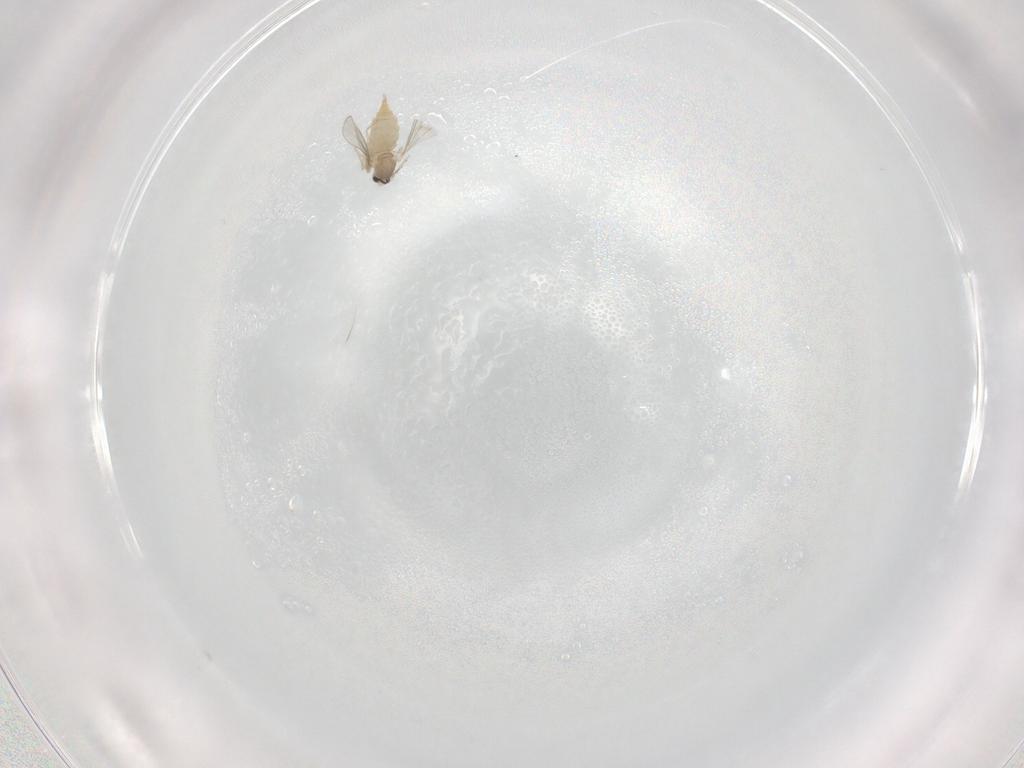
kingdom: Animalia
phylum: Arthropoda
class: Insecta
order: Diptera
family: Cecidomyiidae
